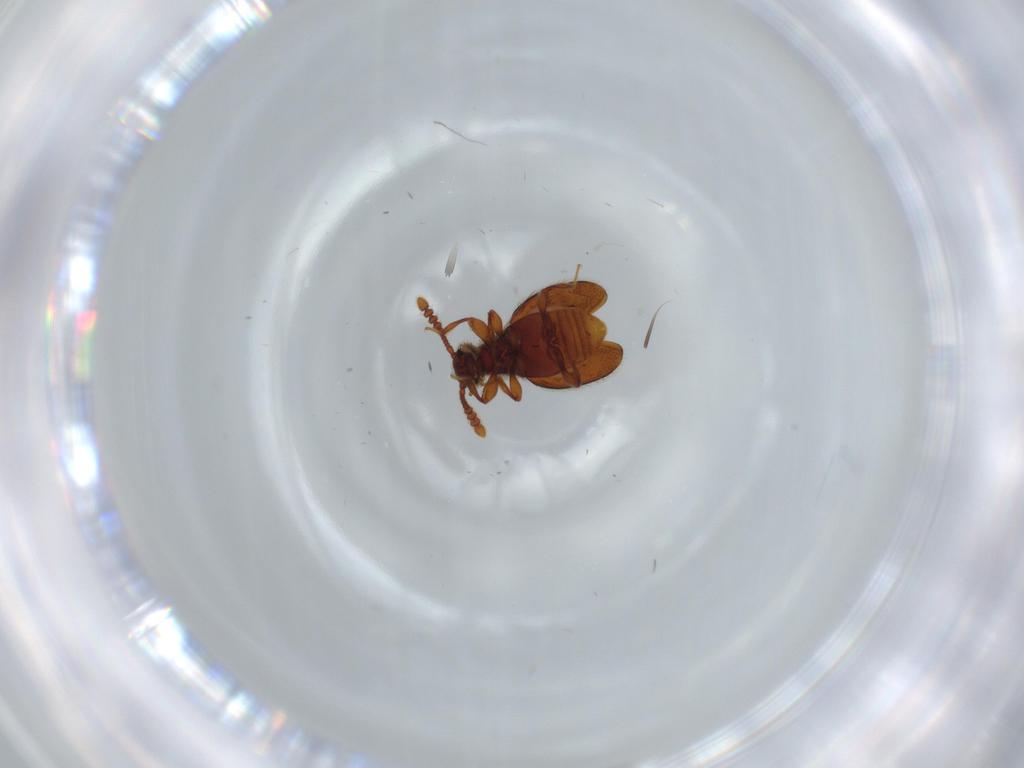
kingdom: Animalia
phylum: Arthropoda
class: Insecta
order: Coleoptera
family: Staphylinidae
